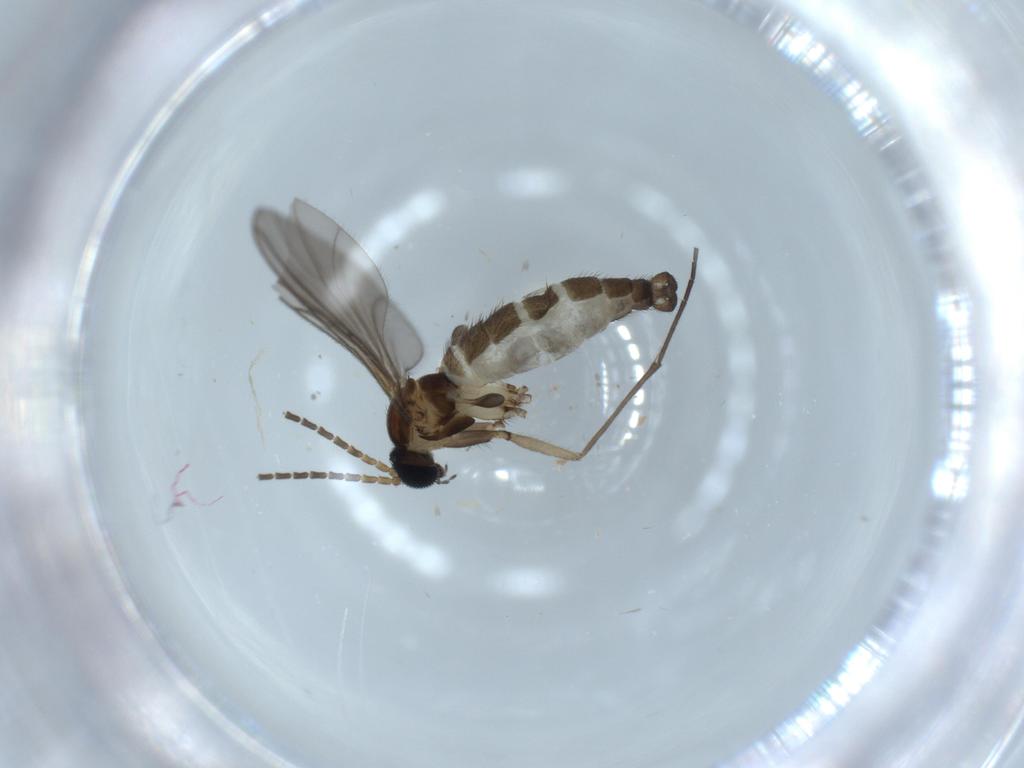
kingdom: Animalia
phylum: Arthropoda
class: Insecta
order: Diptera
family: Sciaridae
